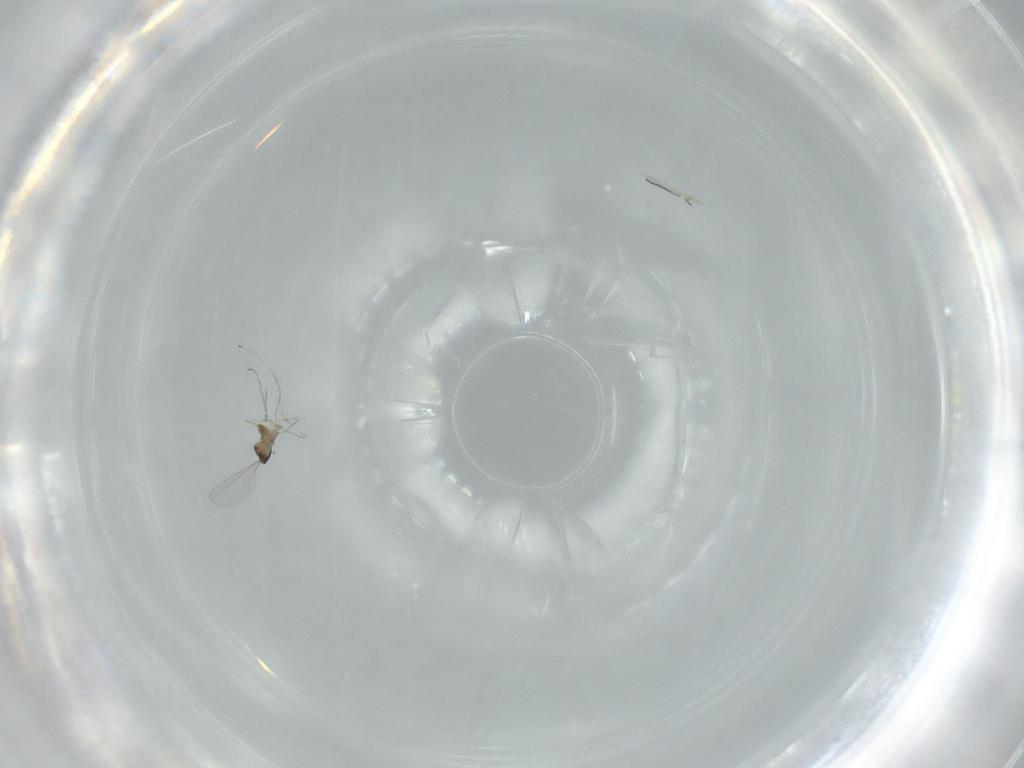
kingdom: Animalia
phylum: Arthropoda
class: Insecta
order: Diptera
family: Cecidomyiidae
